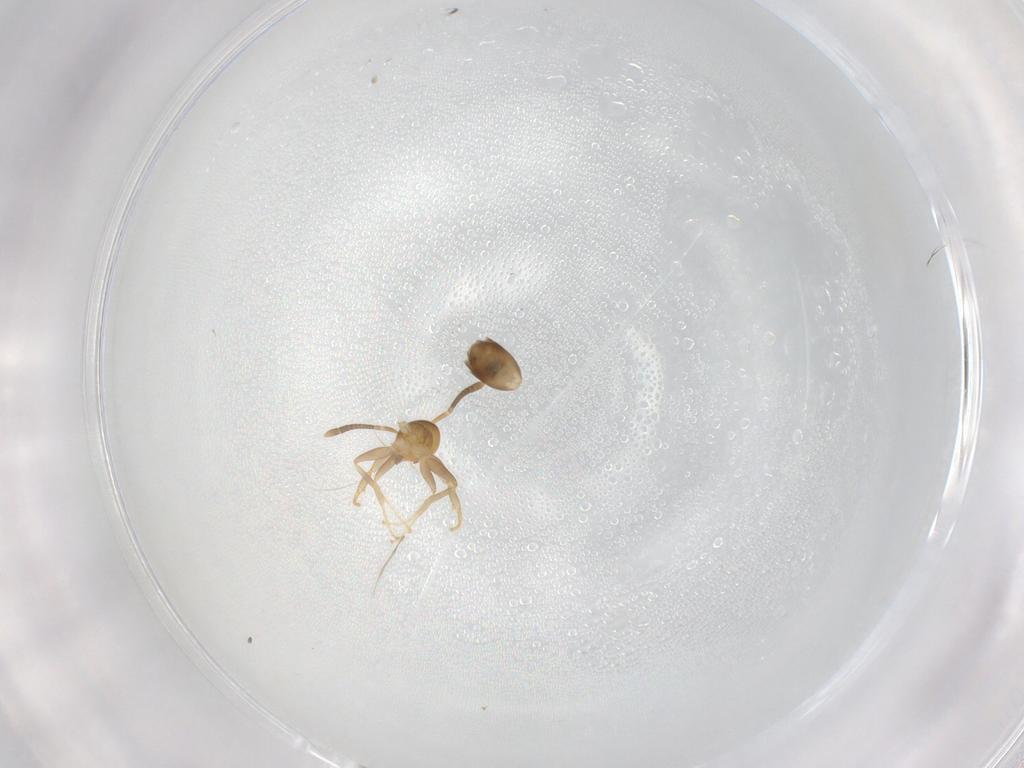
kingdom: Animalia
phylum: Arthropoda
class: Insecta
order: Hymenoptera
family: Formicidae
